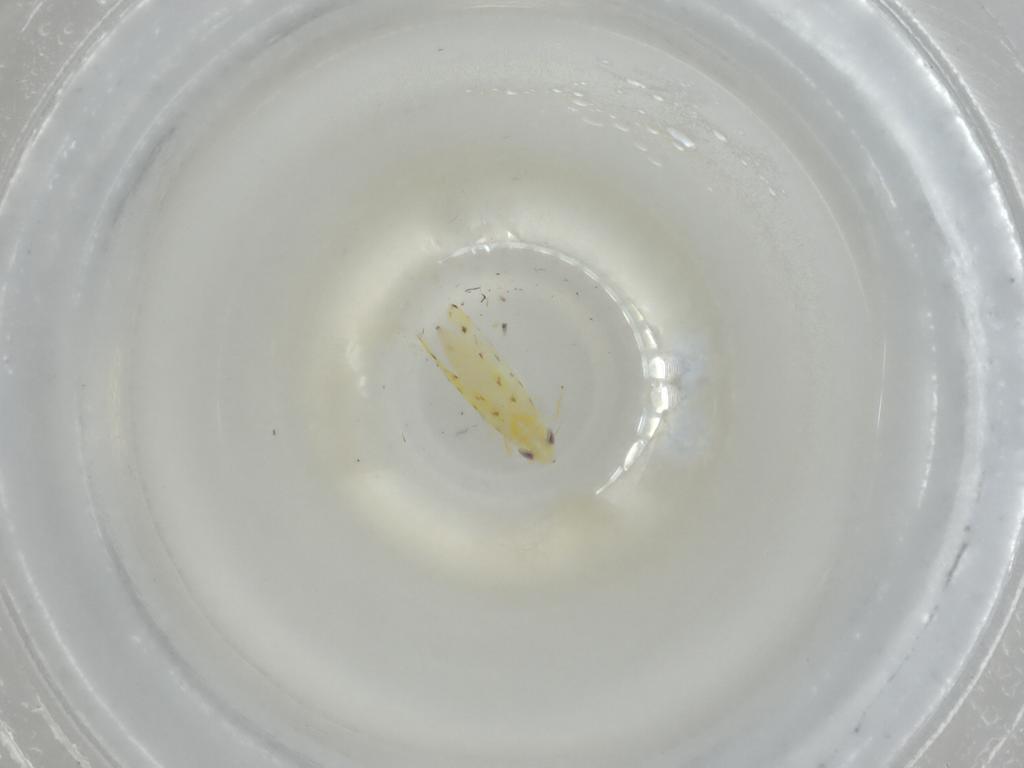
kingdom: Animalia
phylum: Arthropoda
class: Insecta
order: Hemiptera
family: Cicadellidae
